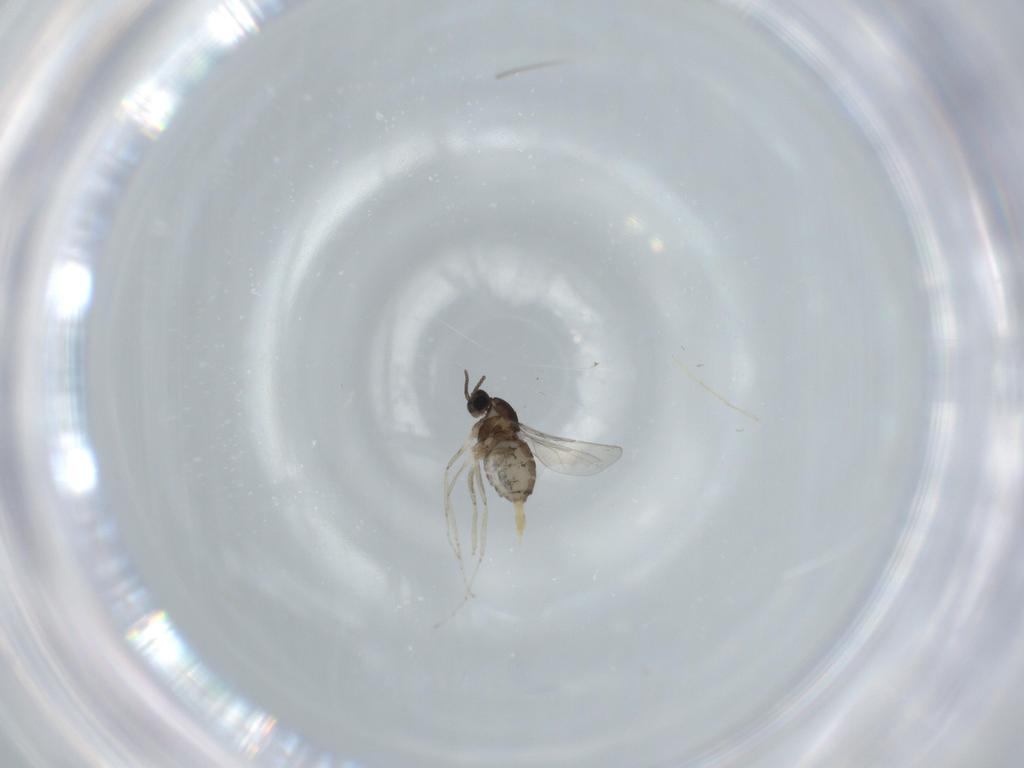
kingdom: Animalia
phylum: Arthropoda
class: Insecta
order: Diptera
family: Cecidomyiidae
